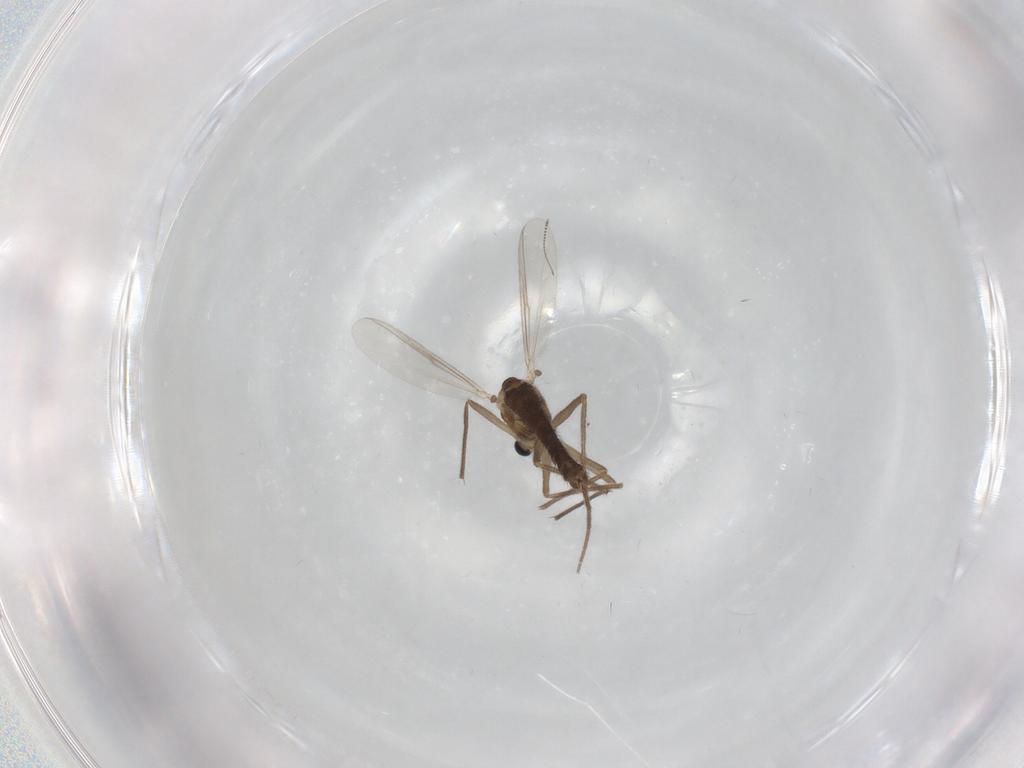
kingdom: Animalia
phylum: Arthropoda
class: Insecta
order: Diptera
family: Chironomidae
